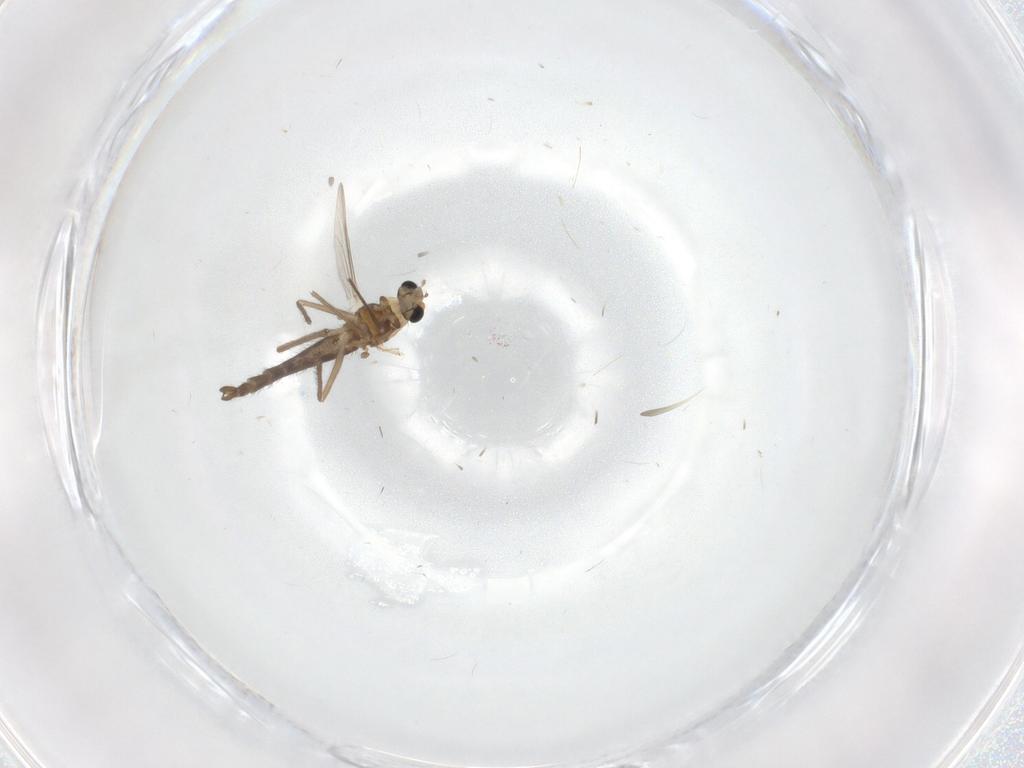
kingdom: Animalia
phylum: Arthropoda
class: Insecta
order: Diptera
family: Chironomidae
